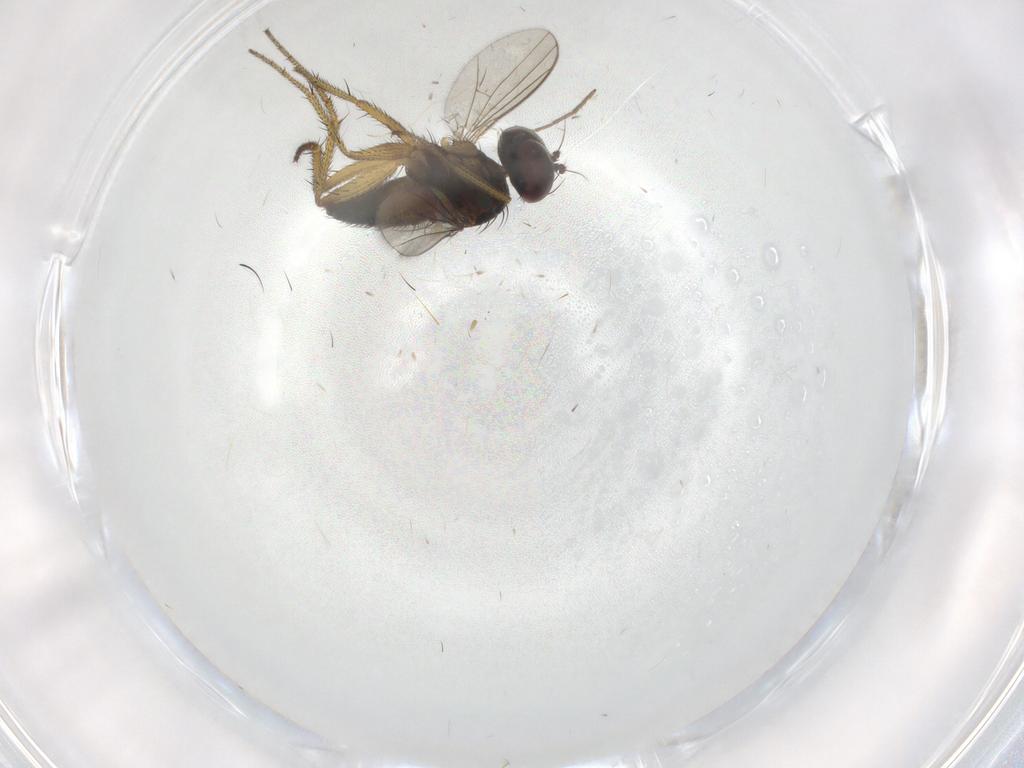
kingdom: Animalia
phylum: Arthropoda
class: Insecta
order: Diptera
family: Chironomidae
